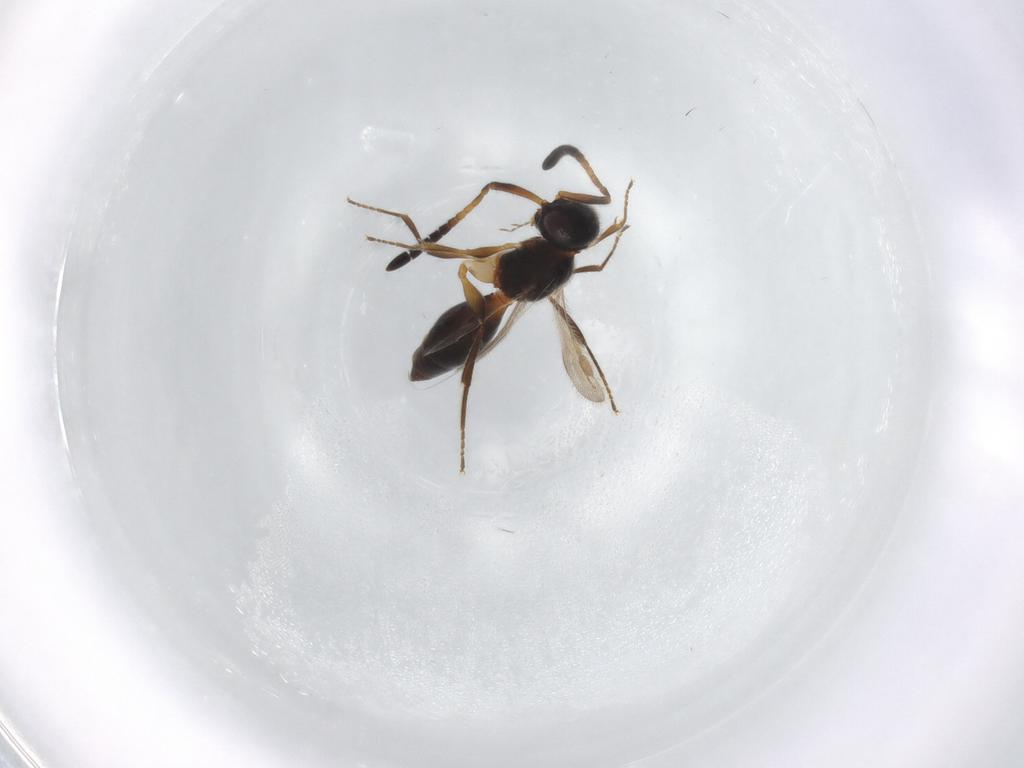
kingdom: Animalia
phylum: Arthropoda
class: Insecta
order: Hymenoptera
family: Megaspilidae
